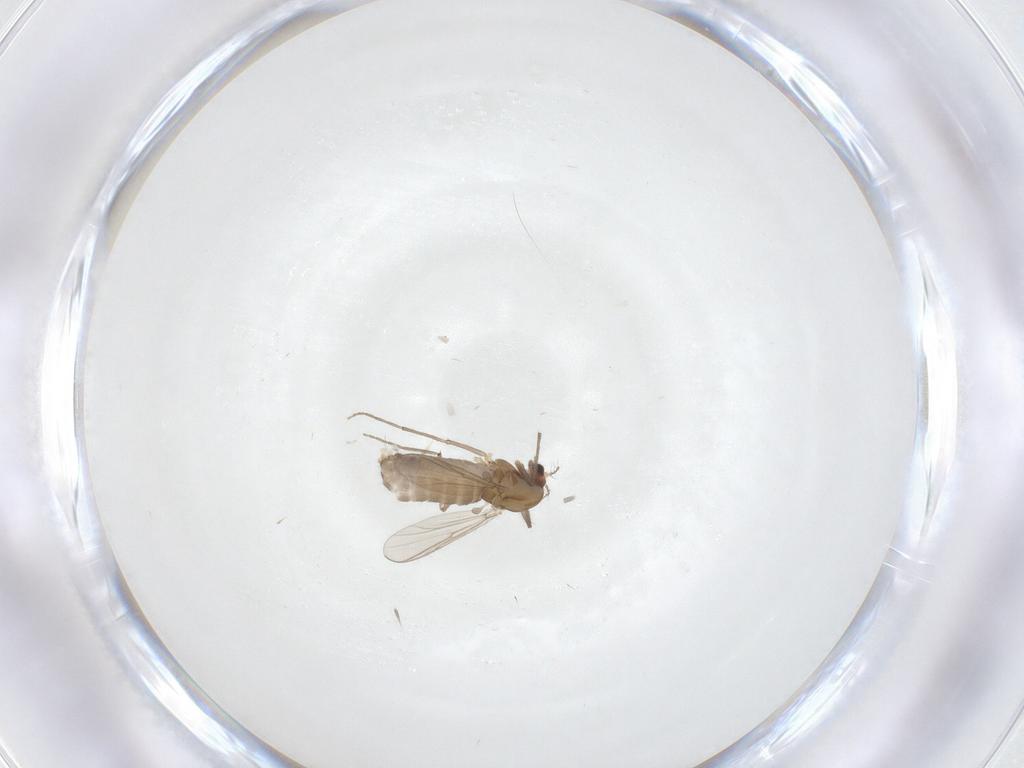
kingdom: Animalia
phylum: Arthropoda
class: Insecta
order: Diptera
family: Chironomidae
